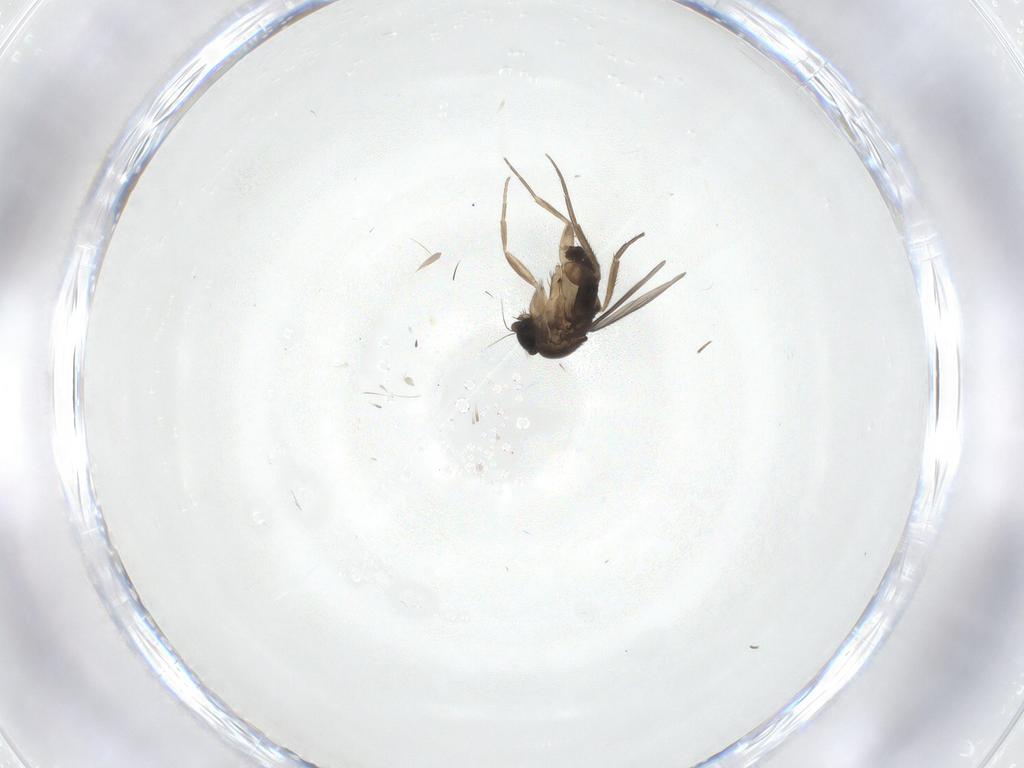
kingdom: Animalia
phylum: Arthropoda
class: Insecta
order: Diptera
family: Phoridae
